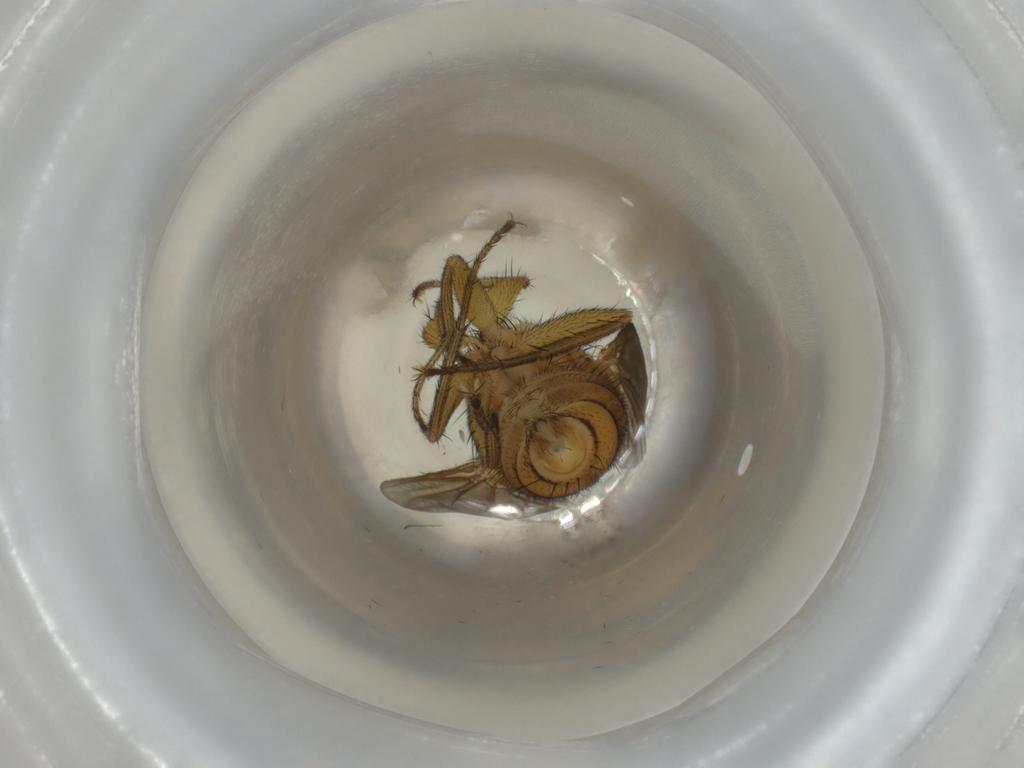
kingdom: Animalia
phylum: Arthropoda
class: Insecta
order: Diptera
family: Calliphoridae
